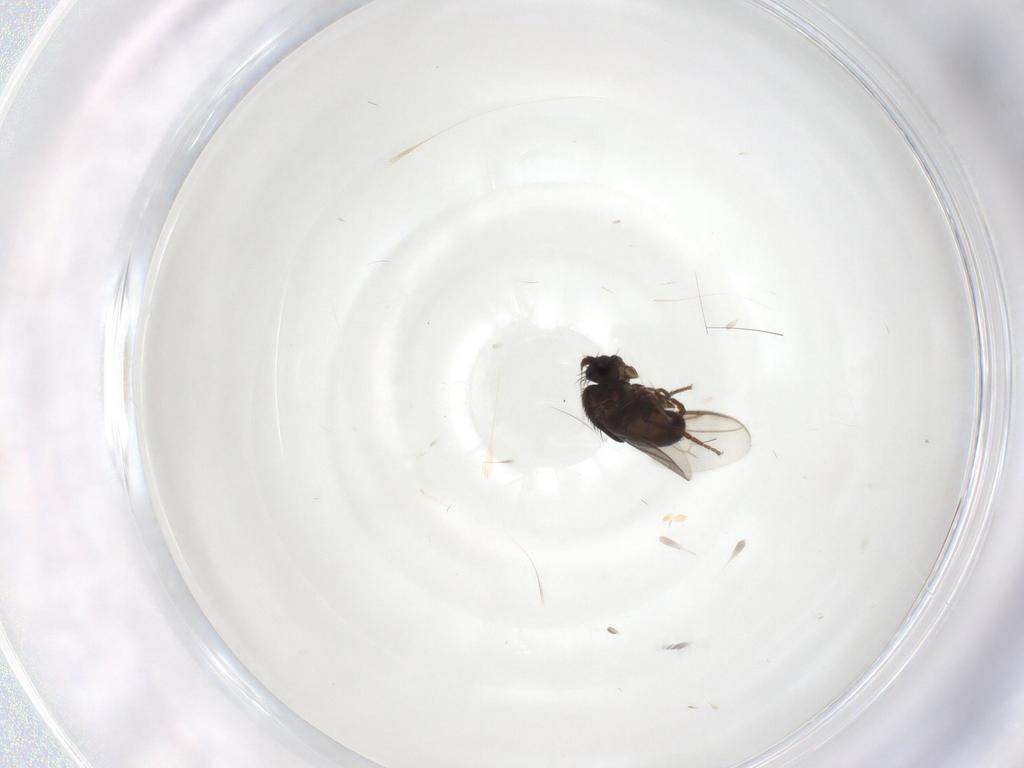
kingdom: Animalia
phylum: Arthropoda
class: Insecta
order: Diptera
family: Sphaeroceridae
